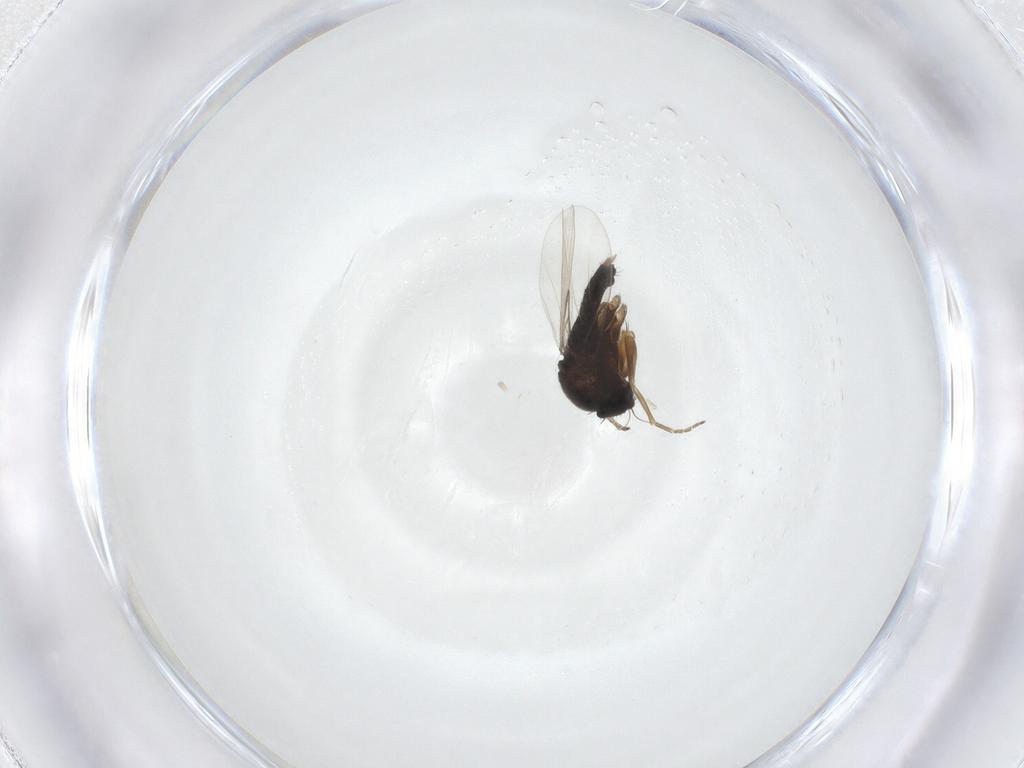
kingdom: Animalia
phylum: Arthropoda
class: Insecta
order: Diptera
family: Phoridae
